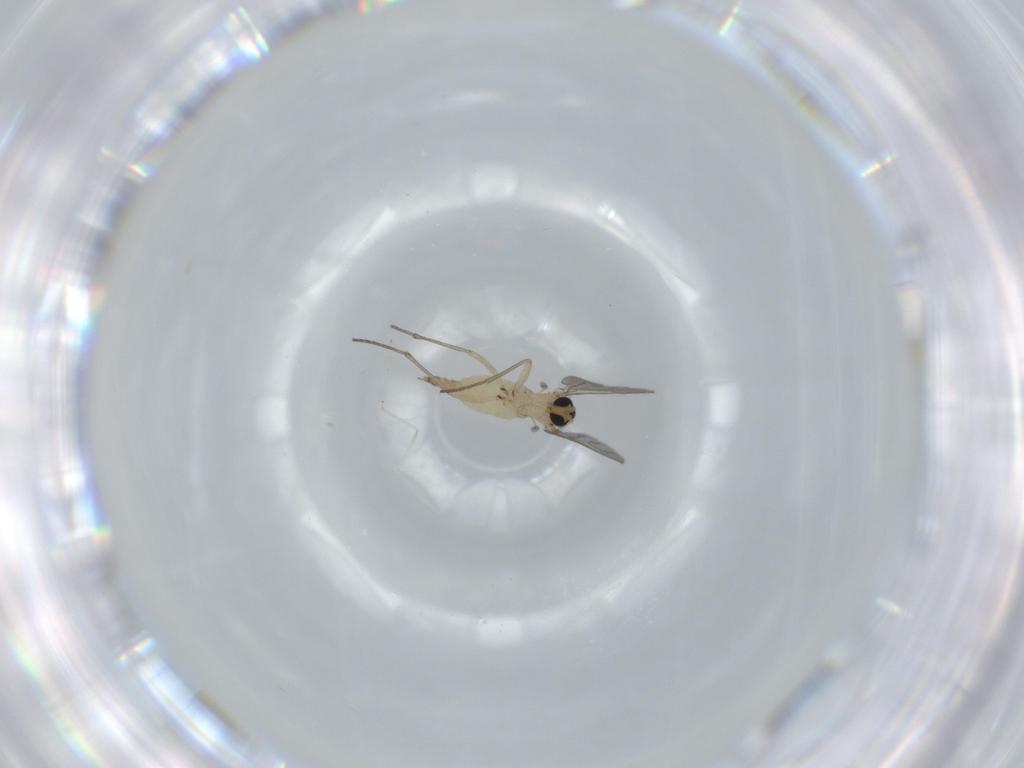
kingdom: Animalia
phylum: Arthropoda
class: Insecta
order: Diptera
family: Sciaridae
